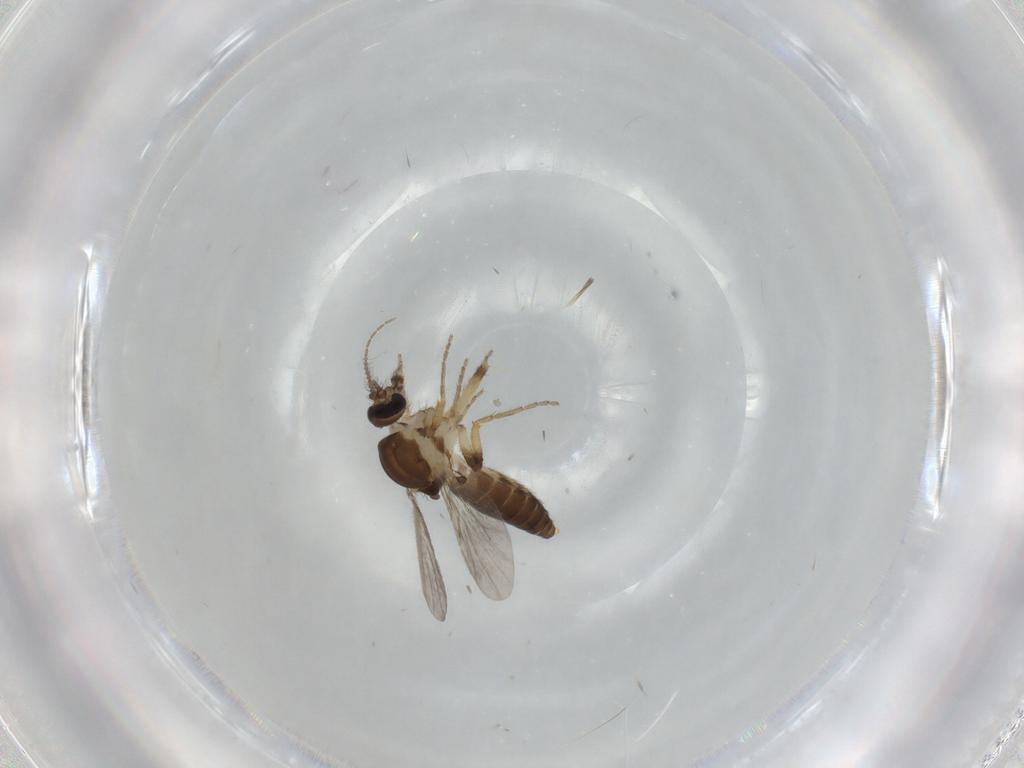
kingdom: Animalia
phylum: Arthropoda
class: Insecta
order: Diptera
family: Ceratopogonidae
